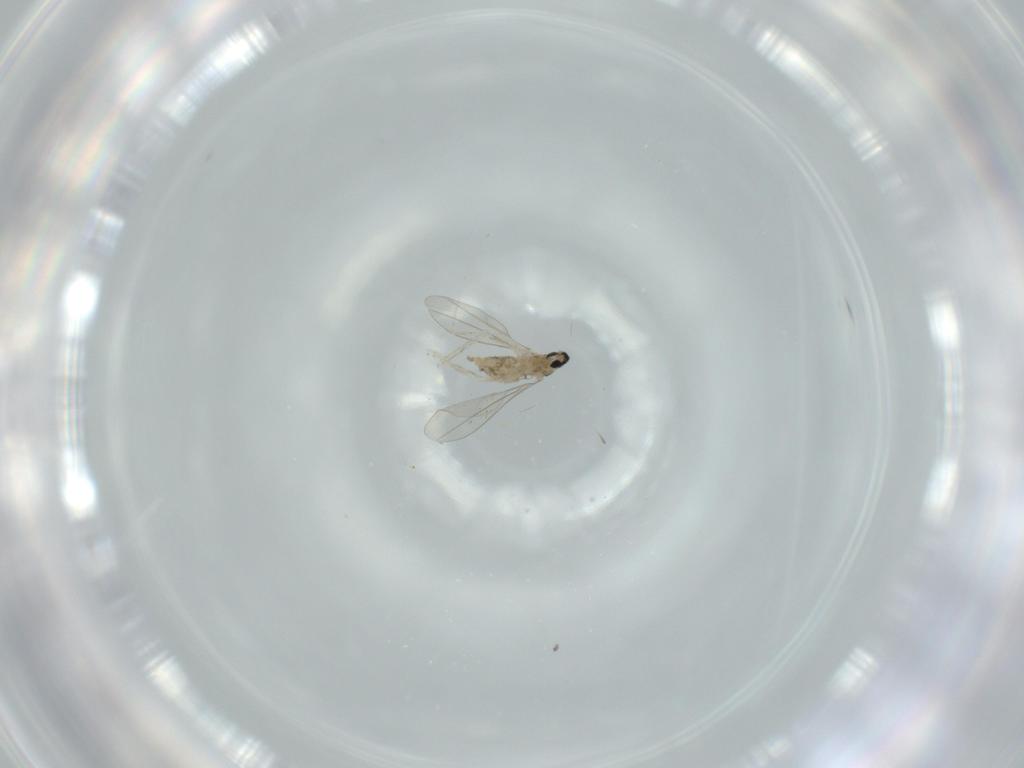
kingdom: Animalia
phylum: Arthropoda
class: Insecta
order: Diptera
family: Cecidomyiidae
